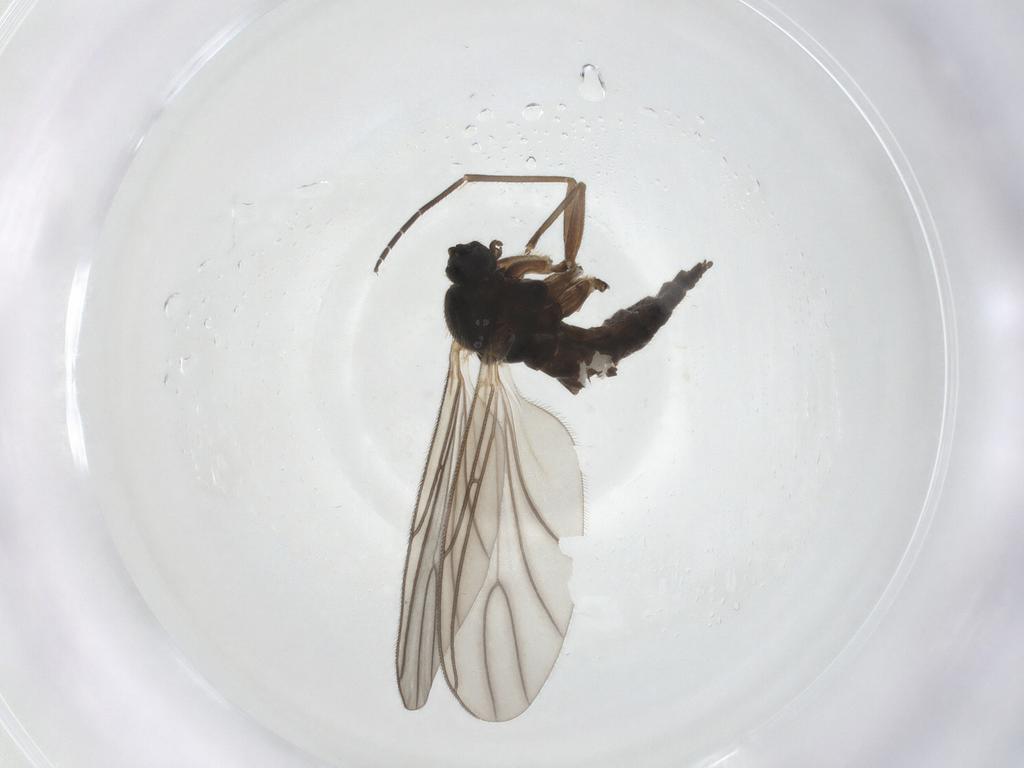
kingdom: Animalia
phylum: Arthropoda
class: Insecta
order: Diptera
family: Sciaridae
